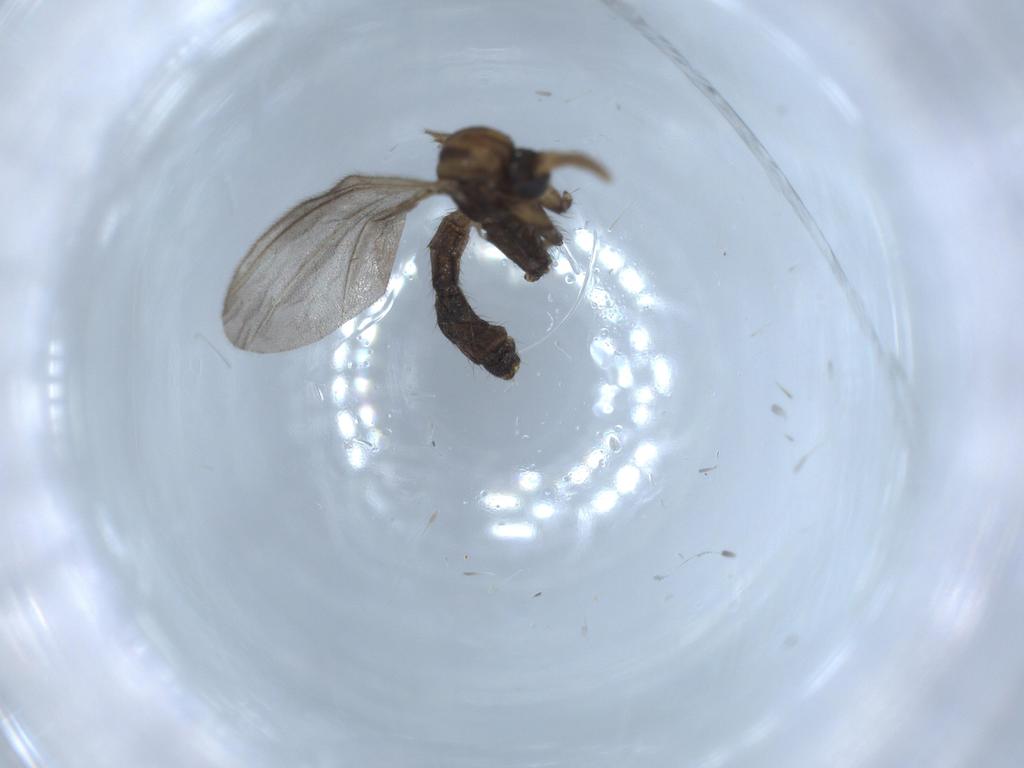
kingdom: Animalia
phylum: Arthropoda
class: Insecta
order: Diptera
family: Mycetophilidae
